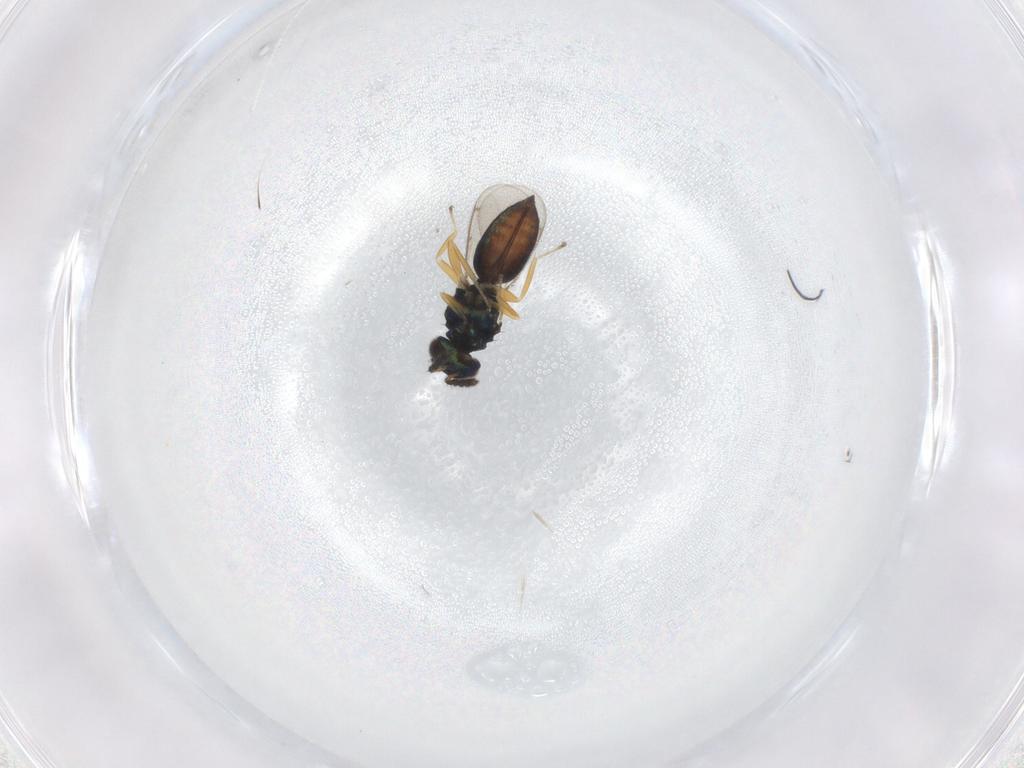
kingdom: Animalia
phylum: Arthropoda
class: Insecta
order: Hymenoptera
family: Eulophidae
